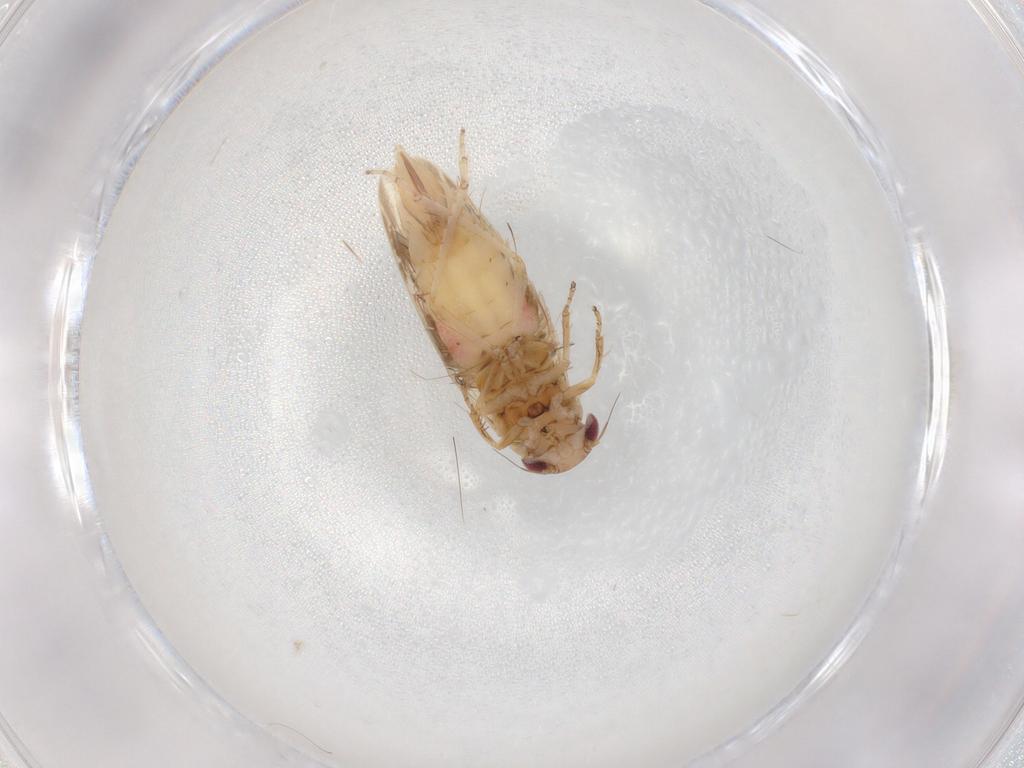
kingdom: Animalia
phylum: Arthropoda
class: Insecta
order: Hemiptera
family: Cicadellidae
